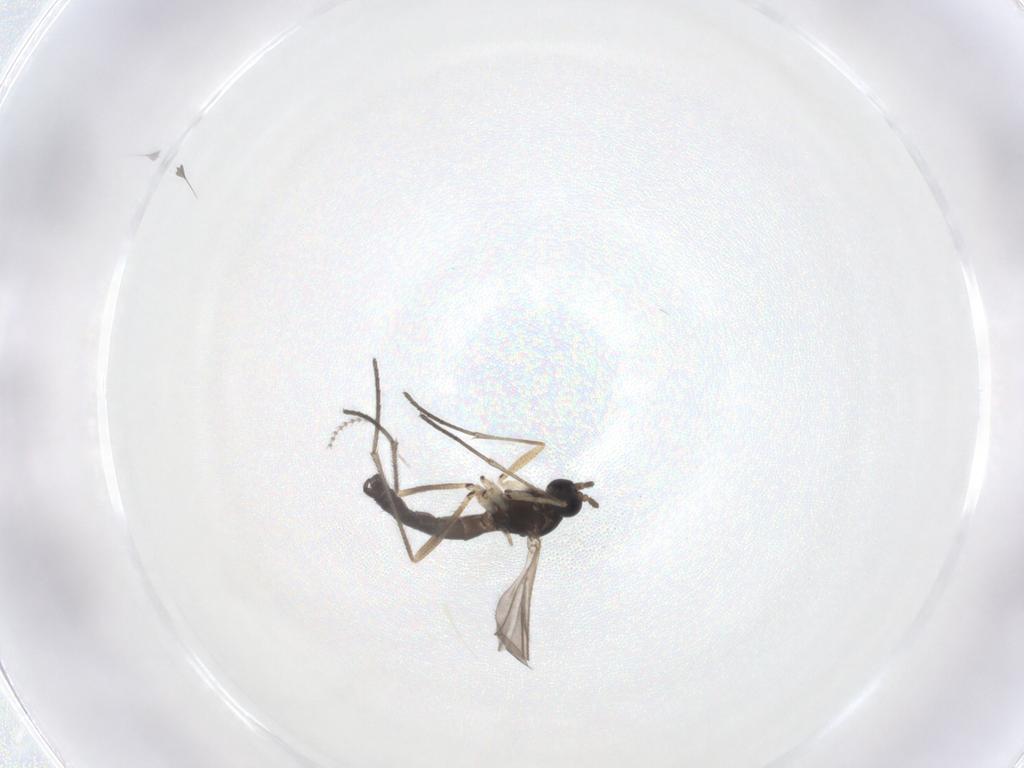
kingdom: Animalia
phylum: Arthropoda
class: Insecta
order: Diptera
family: Sciaridae
